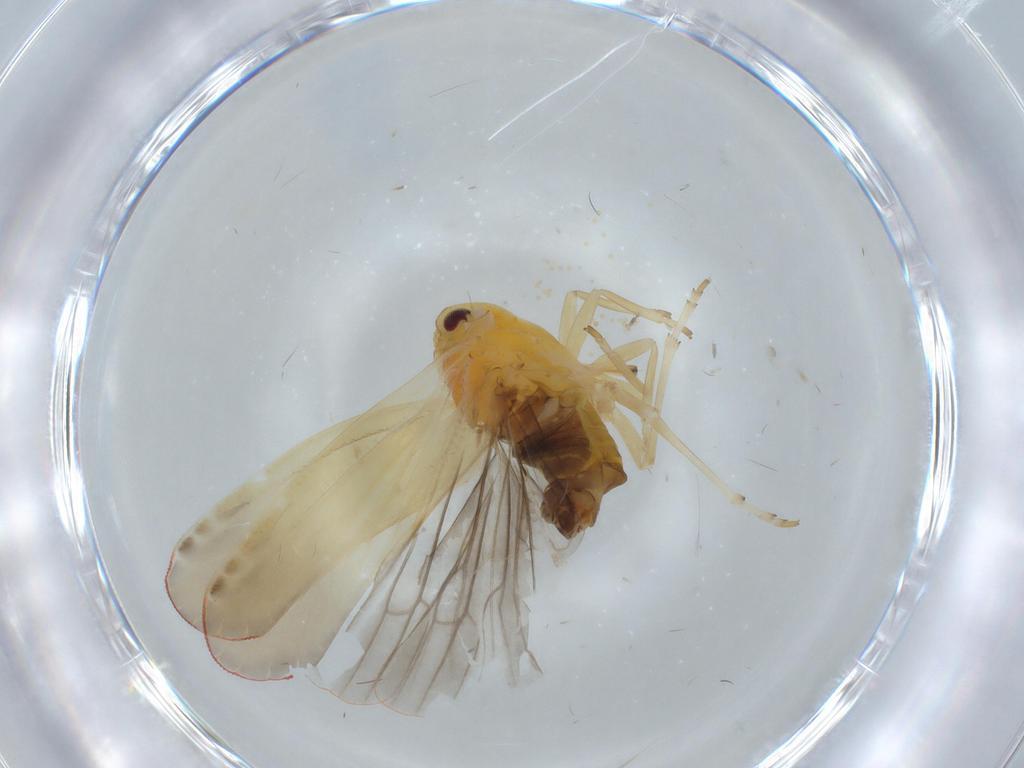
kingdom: Animalia
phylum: Arthropoda
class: Insecta
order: Hemiptera
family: Derbidae
